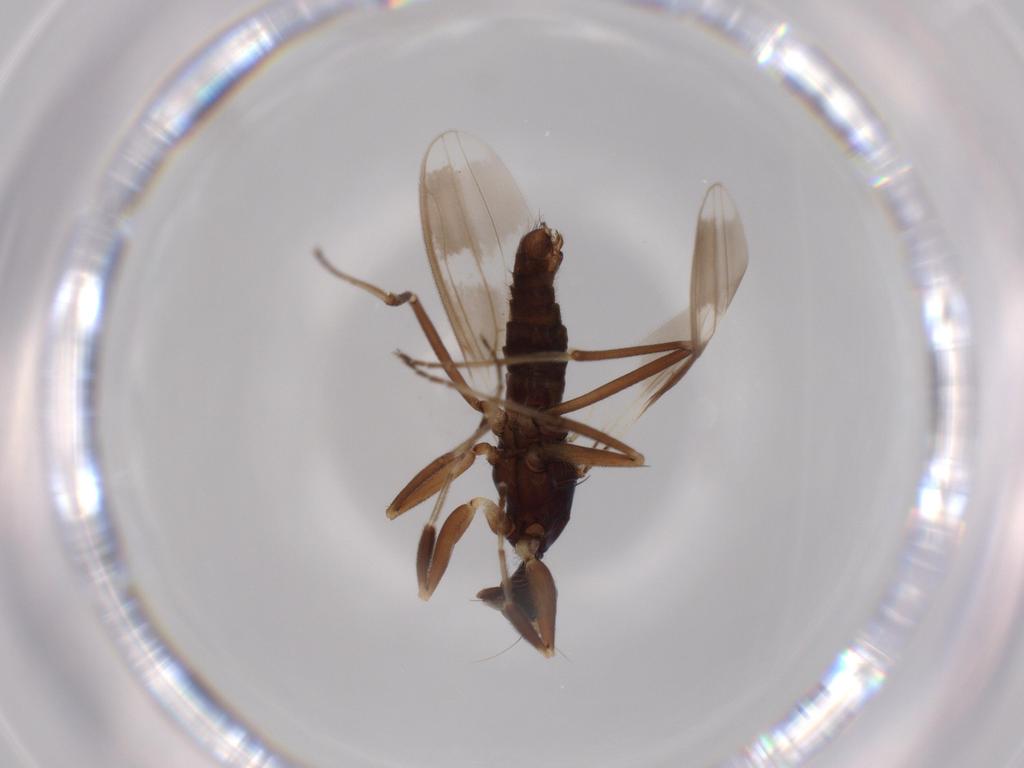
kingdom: Animalia
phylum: Arthropoda
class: Insecta
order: Diptera
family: Hybotidae
